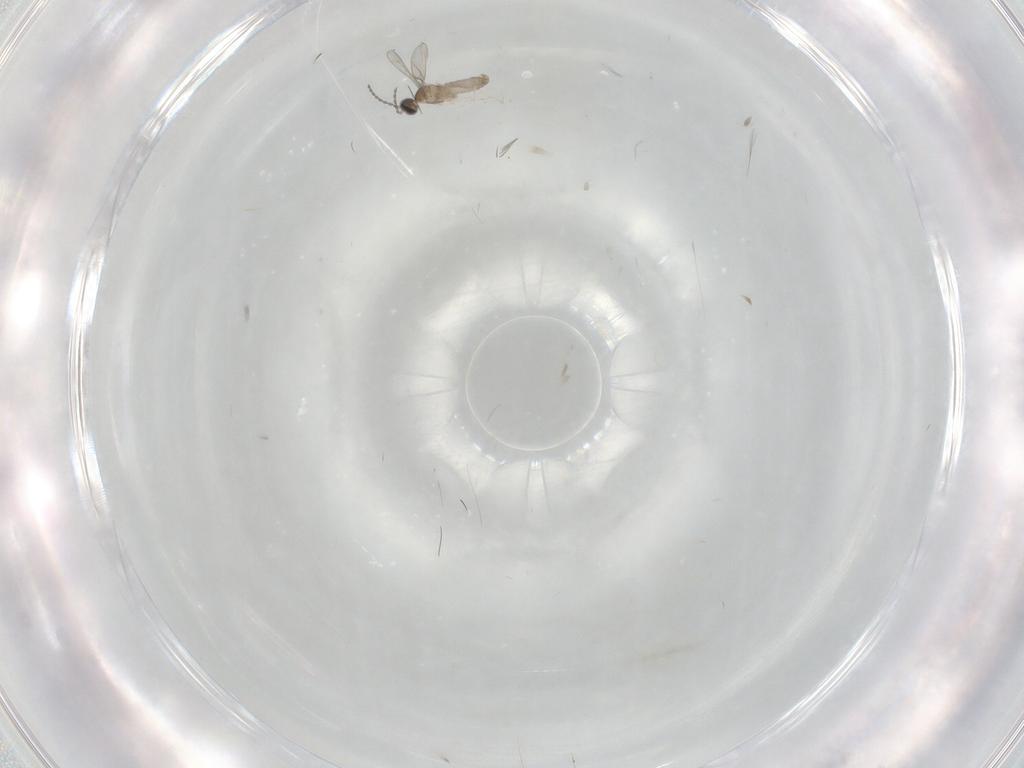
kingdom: Animalia
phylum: Arthropoda
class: Insecta
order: Diptera
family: Cecidomyiidae
